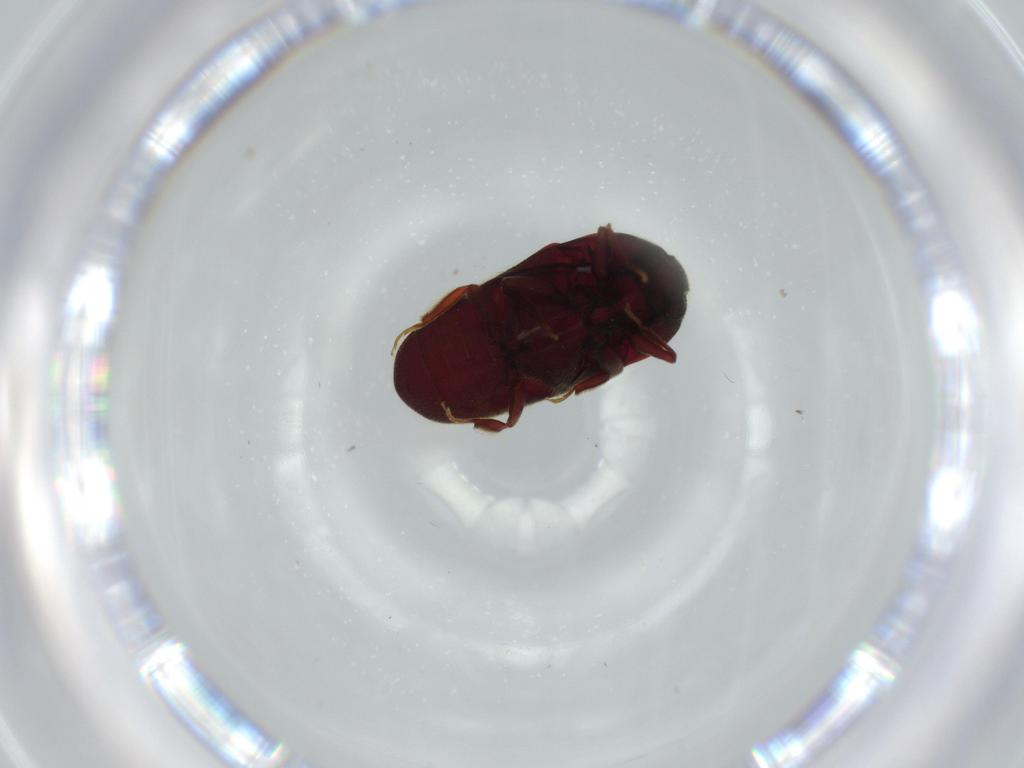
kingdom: Animalia
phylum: Arthropoda
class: Insecta
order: Coleoptera
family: Throscidae
